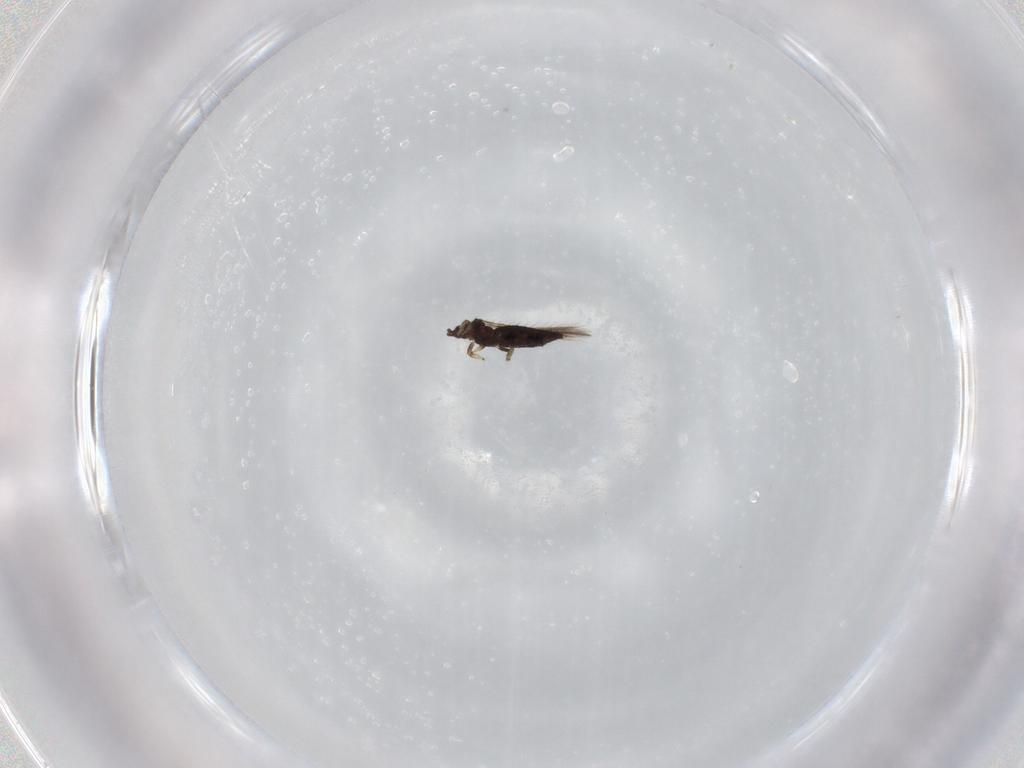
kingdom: Animalia
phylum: Arthropoda
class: Insecta
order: Thysanoptera
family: Thripidae
